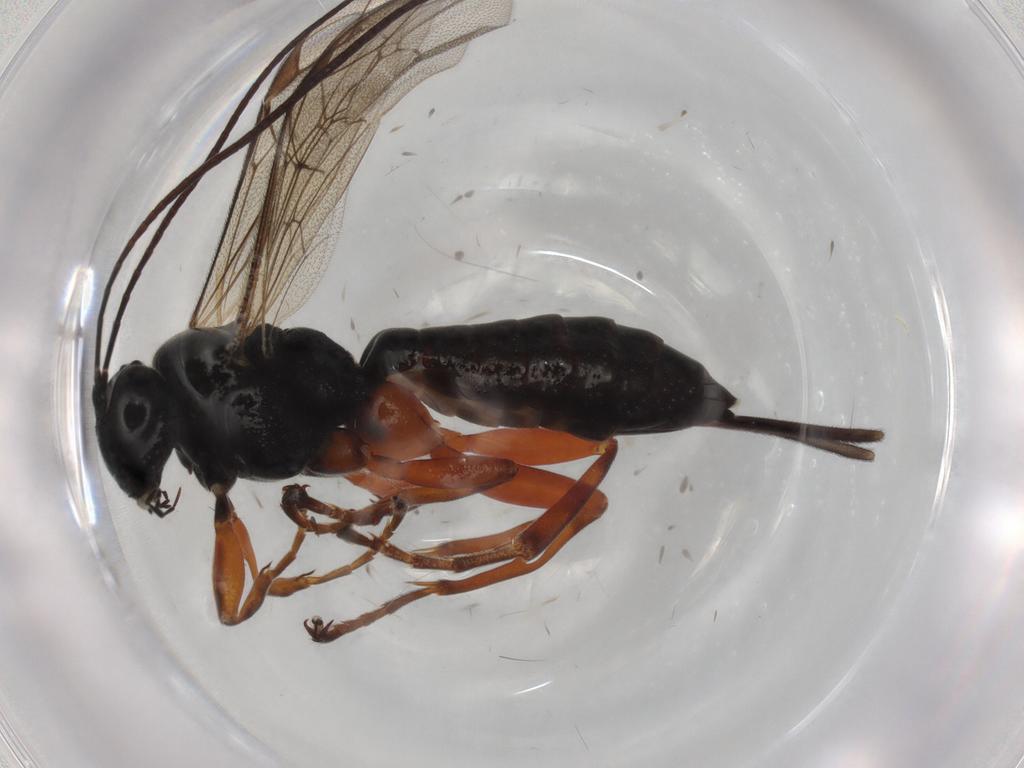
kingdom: Animalia
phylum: Arthropoda
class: Insecta
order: Hymenoptera
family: Ichneumonidae
